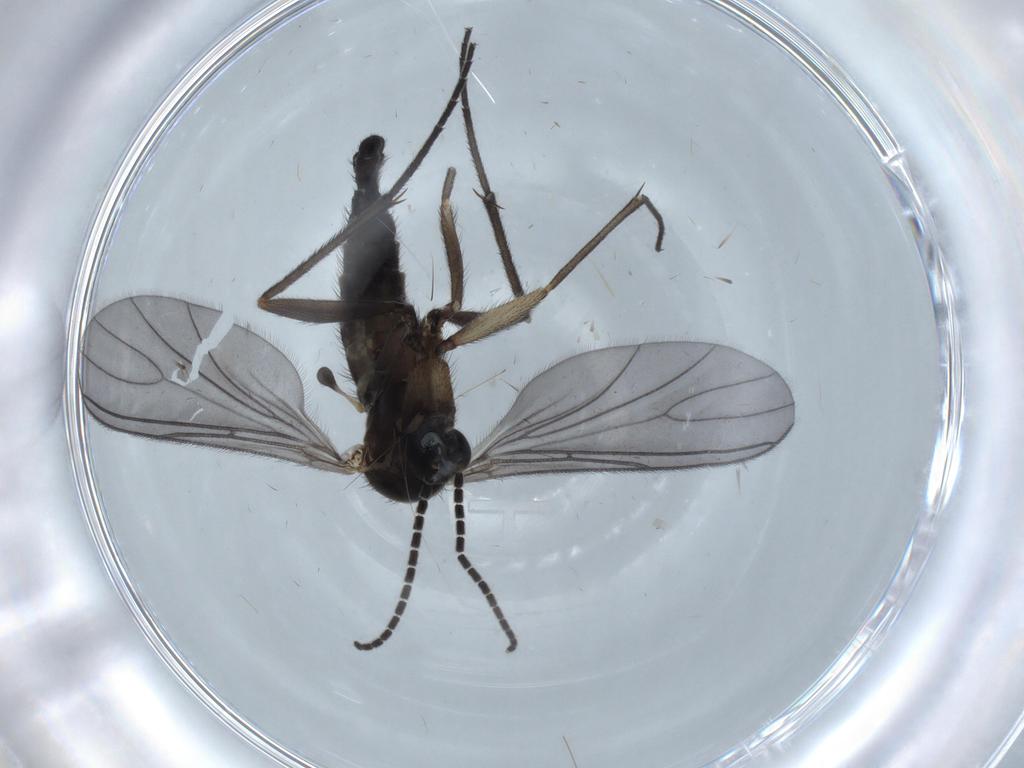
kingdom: Animalia
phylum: Arthropoda
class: Insecta
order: Diptera
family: Sciaridae
